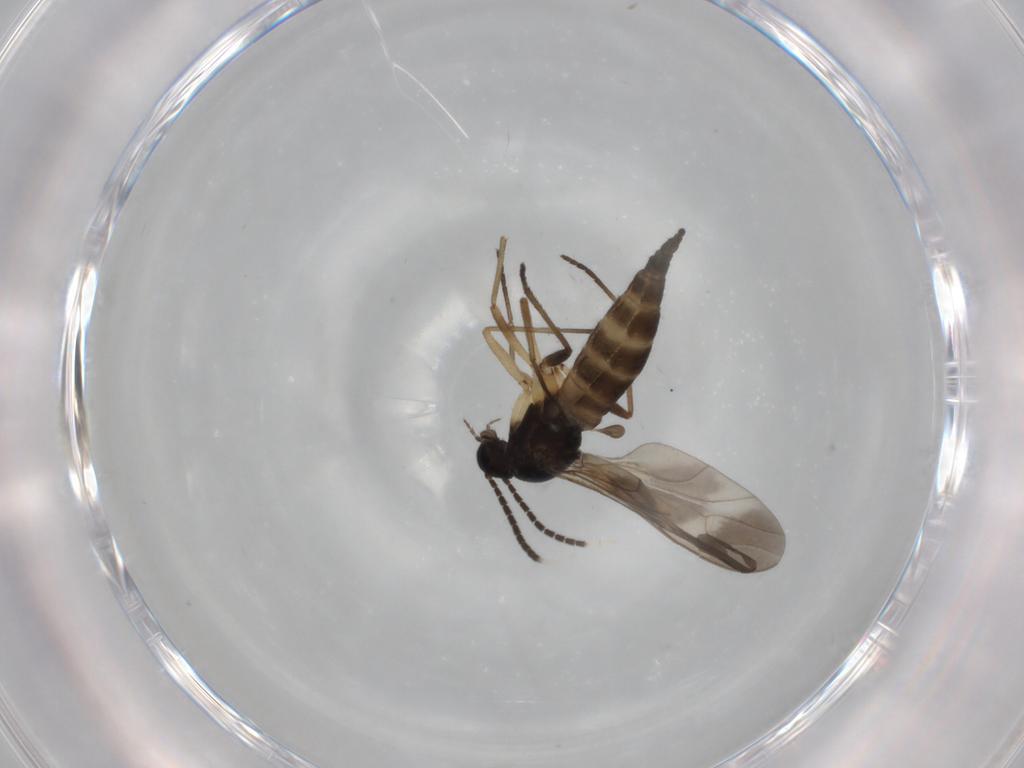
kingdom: Animalia
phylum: Arthropoda
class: Insecta
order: Diptera
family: Sciaridae
